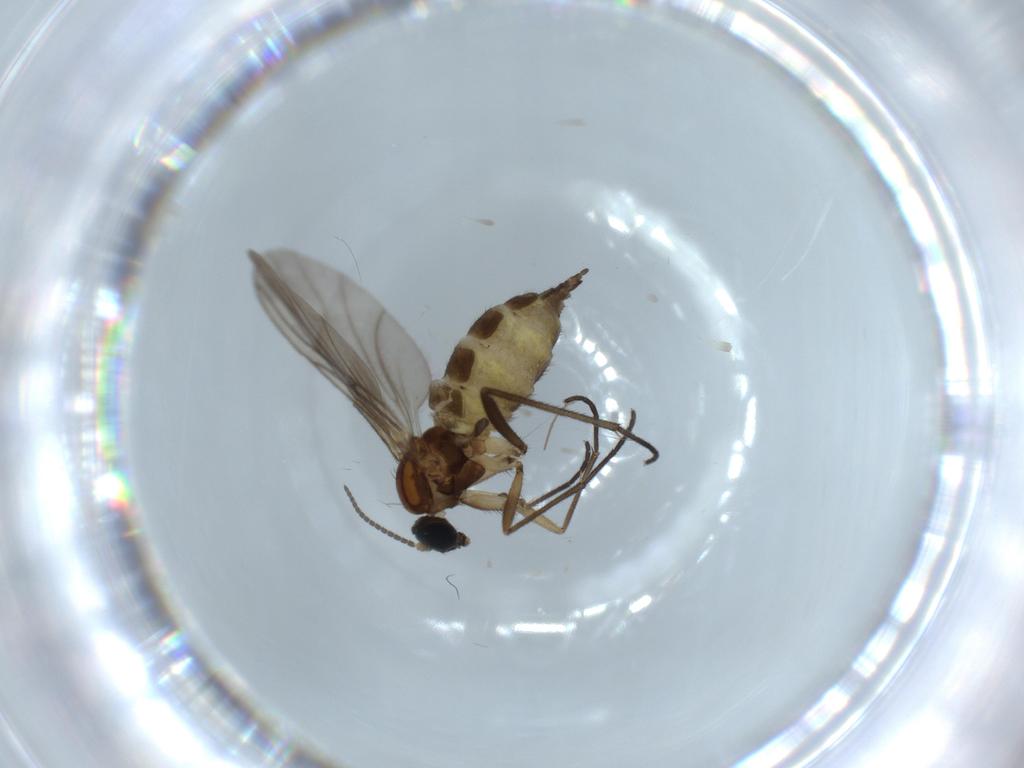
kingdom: Animalia
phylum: Arthropoda
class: Insecta
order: Diptera
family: Sciaridae
